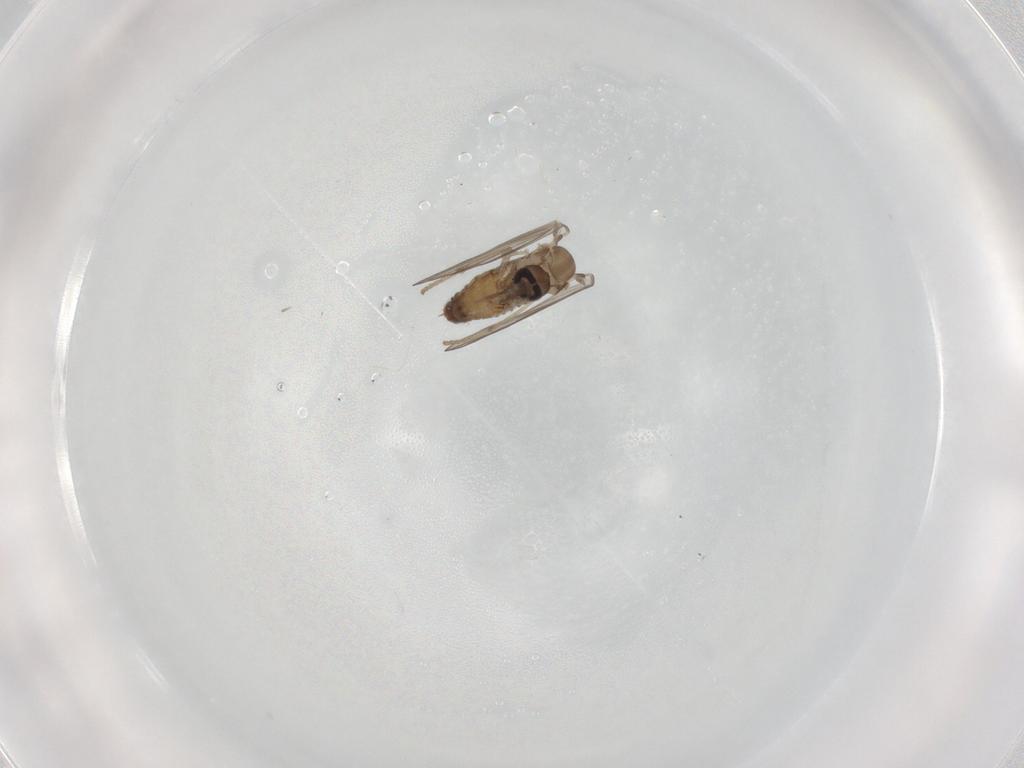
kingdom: Animalia
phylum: Arthropoda
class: Insecta
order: Diptera
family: Psychodidae
